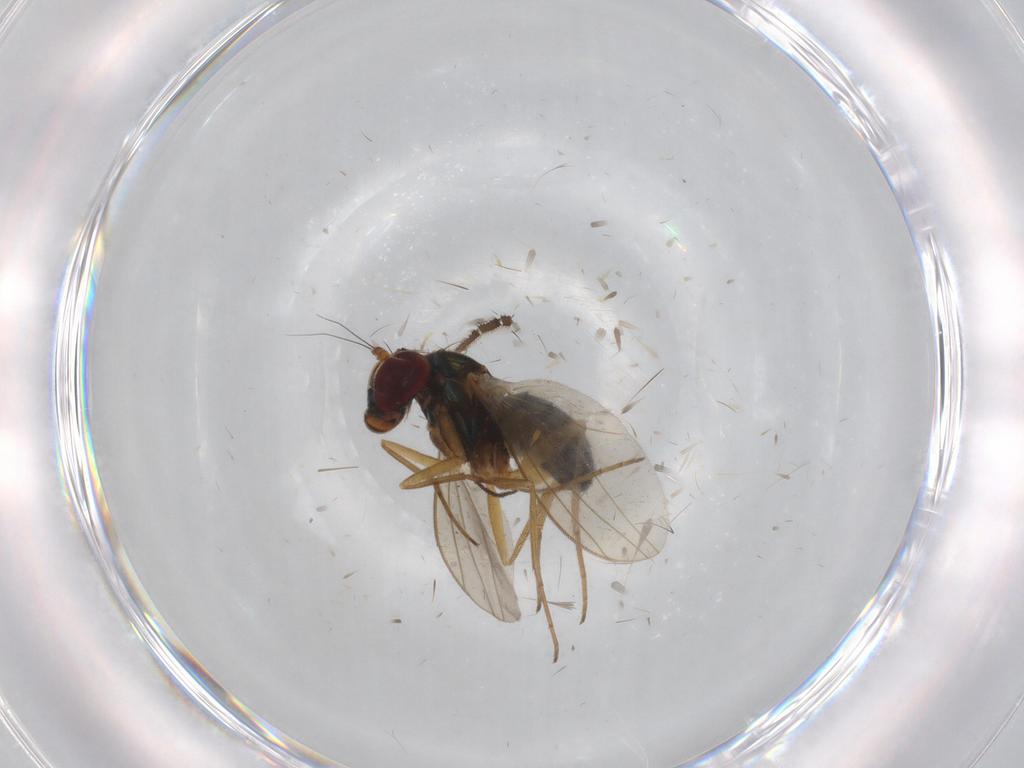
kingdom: Animalia
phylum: Arthropoda
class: Insecta
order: Diptera
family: Dolichopodidae
